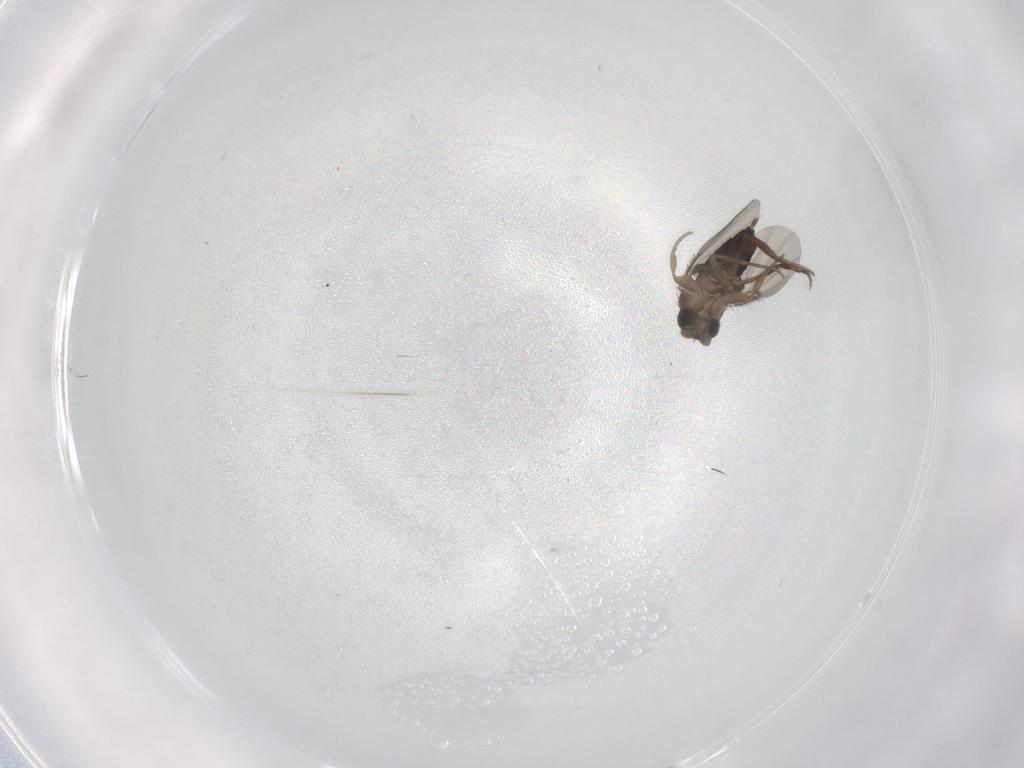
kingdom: Animalia
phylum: Arthropoda
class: Insecta
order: Diptera
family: Phoridae
